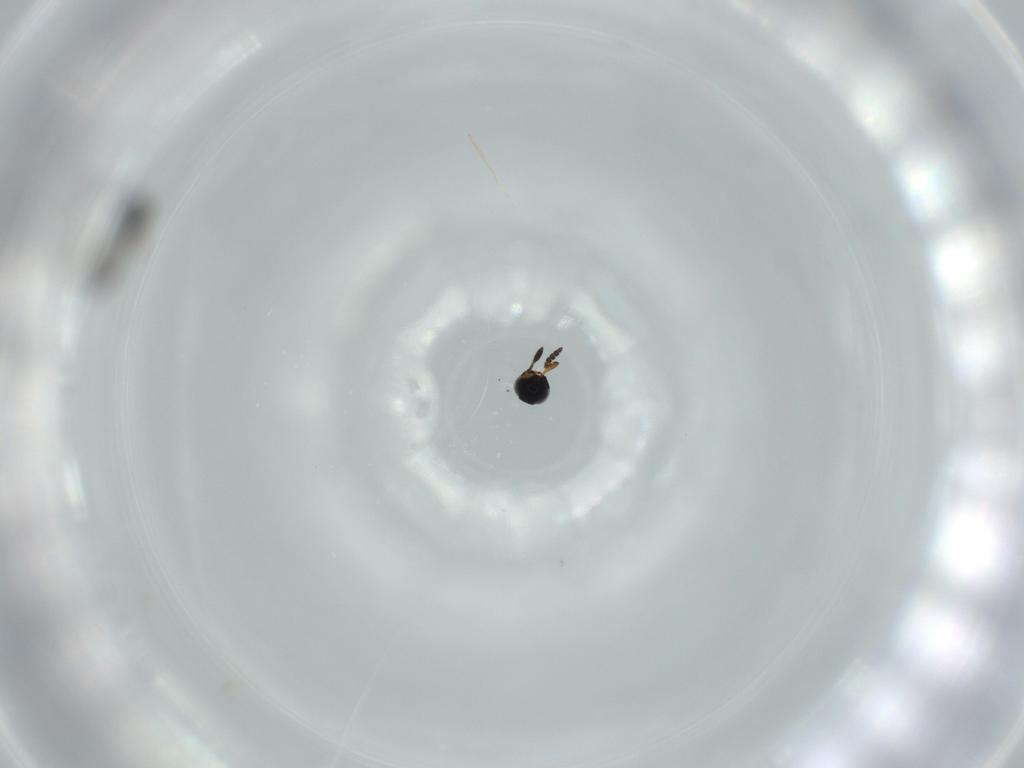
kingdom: Animalia
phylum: Arthropoda
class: Insecta
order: Hymenoptera
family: Scelionidae
